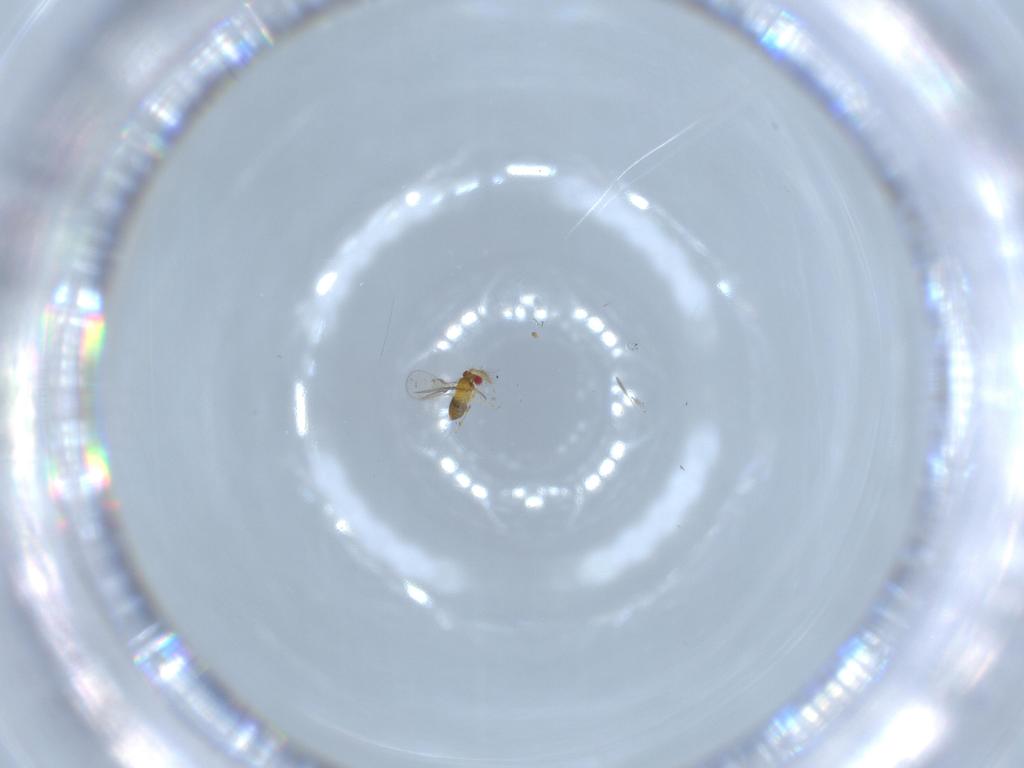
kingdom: Animalia
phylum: Arthropoda
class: Insecta
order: Hymenoptera
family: Trichogrammatidae
